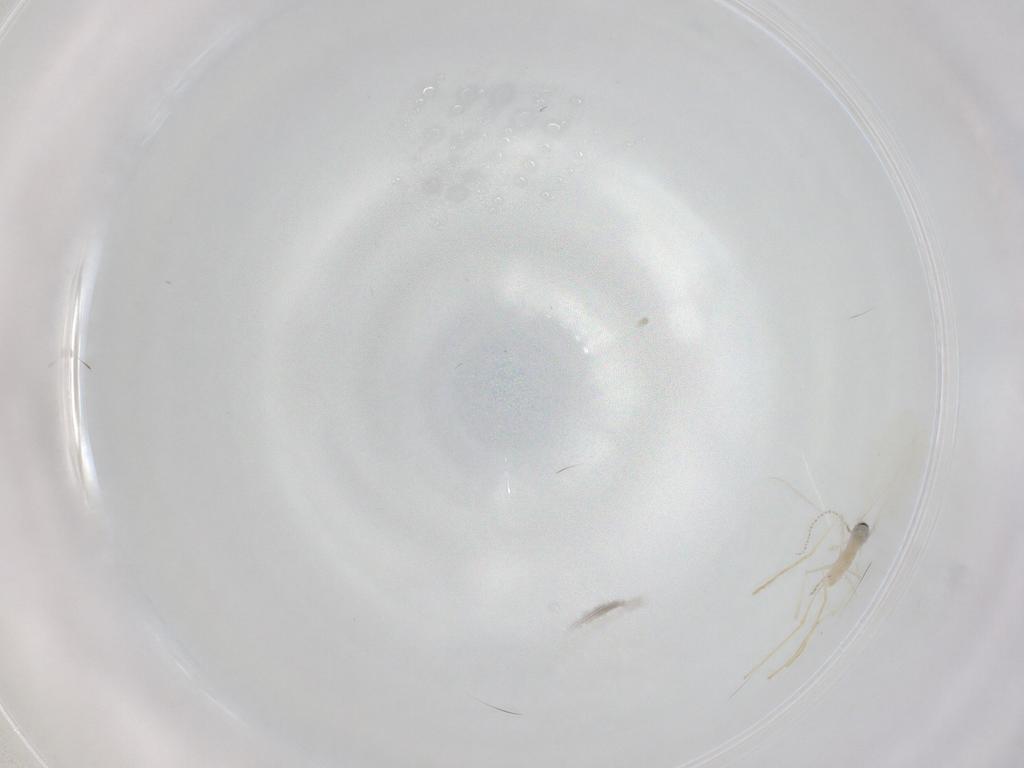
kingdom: Animalia
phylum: Arthropoda
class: Insecta
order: Diptera
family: Cecidomyiidae
